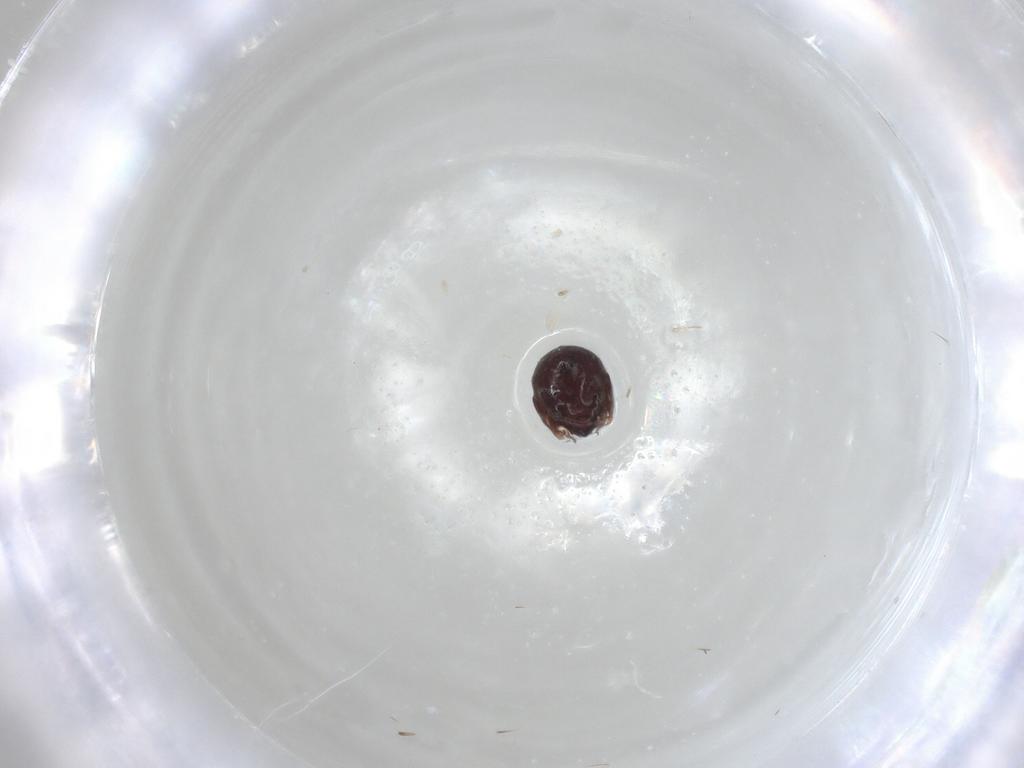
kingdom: Animalia
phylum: Arthropoda
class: Arachnida
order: Sarcoptiformes
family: Galumnidae
